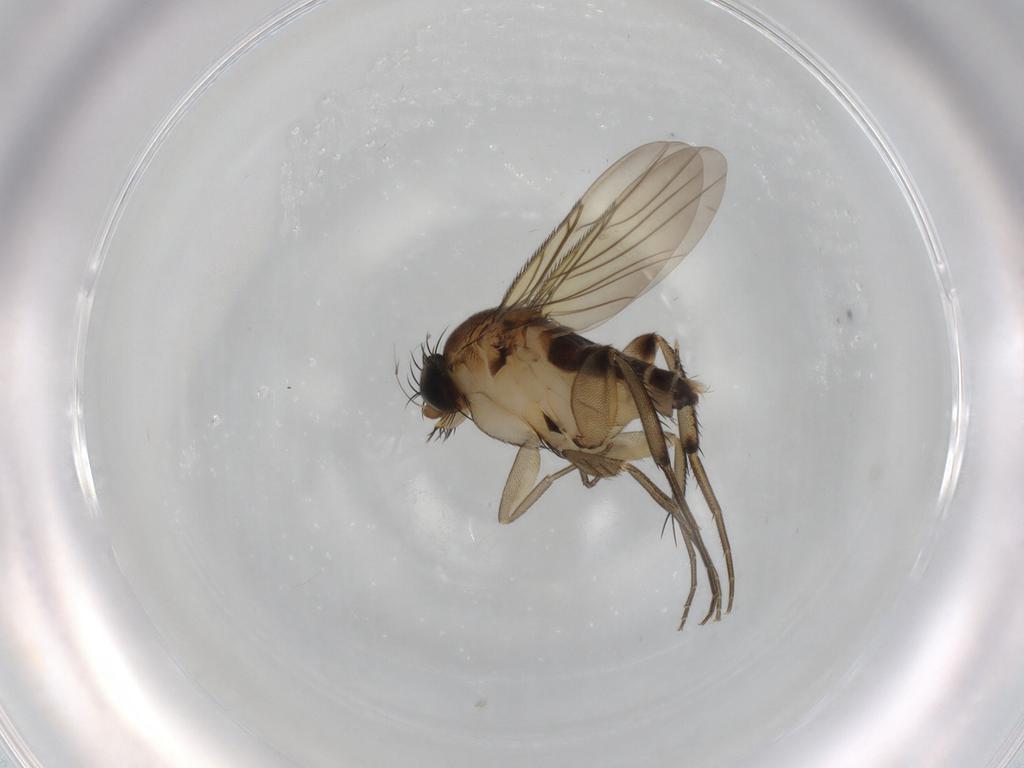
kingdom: Animalia
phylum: Arthropoda
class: Insecta
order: Diptera
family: Phoridae
